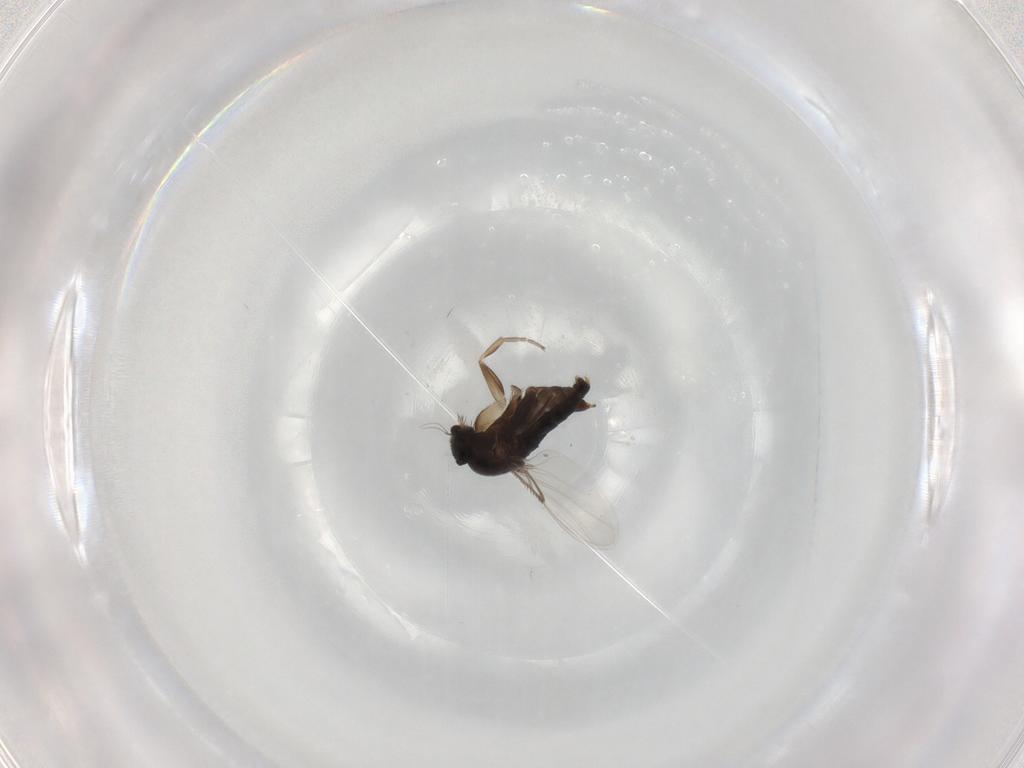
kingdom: Animalia
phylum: Arthropoda
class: Insecta
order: Diptera
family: Phoridae
